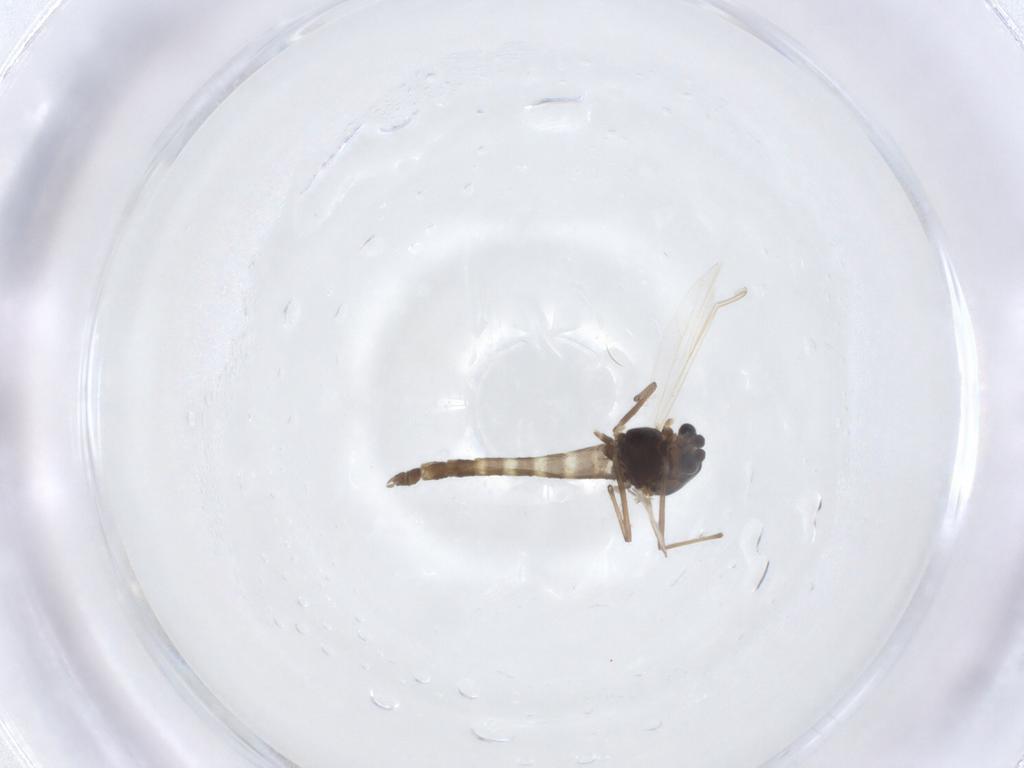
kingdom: Animalia
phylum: Arthropoda
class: Insecta
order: Diptera
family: Chironomidae
